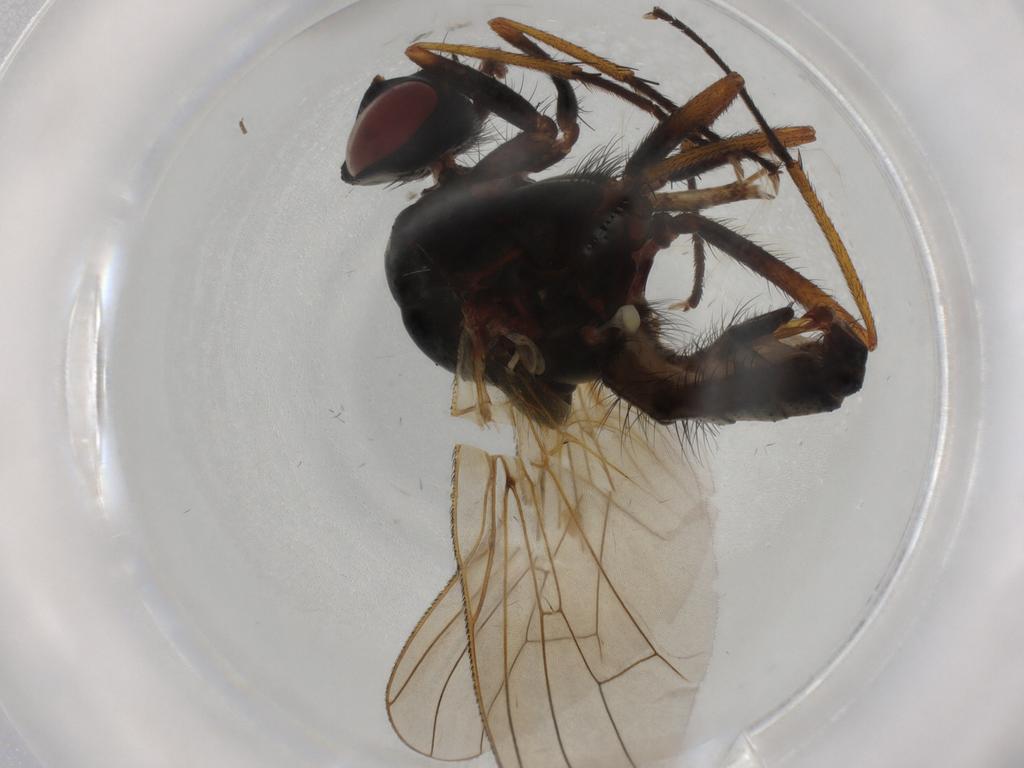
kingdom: Animalia
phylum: Arthropoda
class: Insecta
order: Diptera
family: Anthomyiidae
